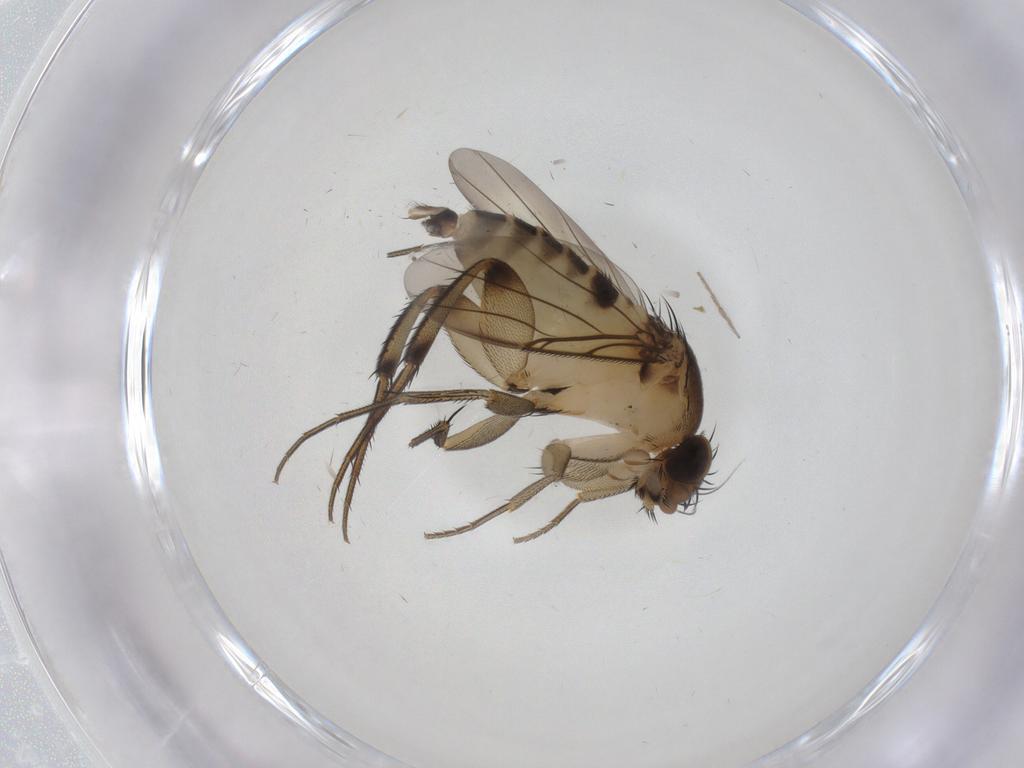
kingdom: Animalia
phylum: Arthropoda
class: Insecta
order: Diptera
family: Phoridae
